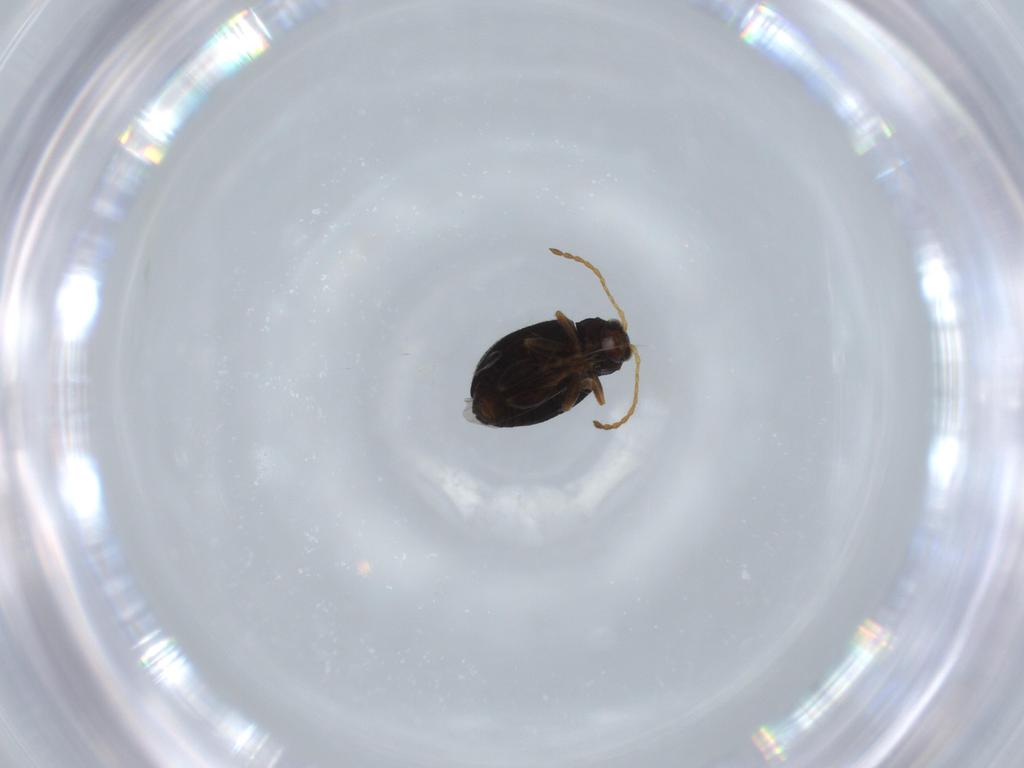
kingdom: Animalia
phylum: Arthropoda
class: Insecta
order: Coleoptera
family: Chrysomelidae
